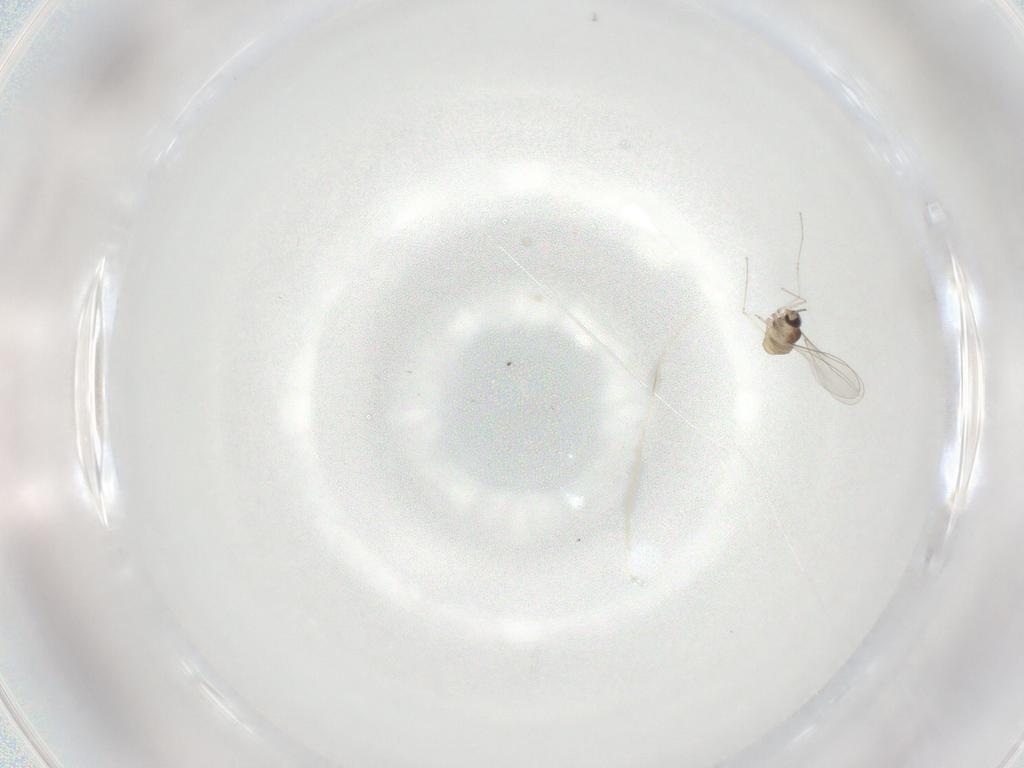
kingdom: Animalia
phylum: Arthropoda
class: Insecta
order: Diptera
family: Cecidomyiidae
